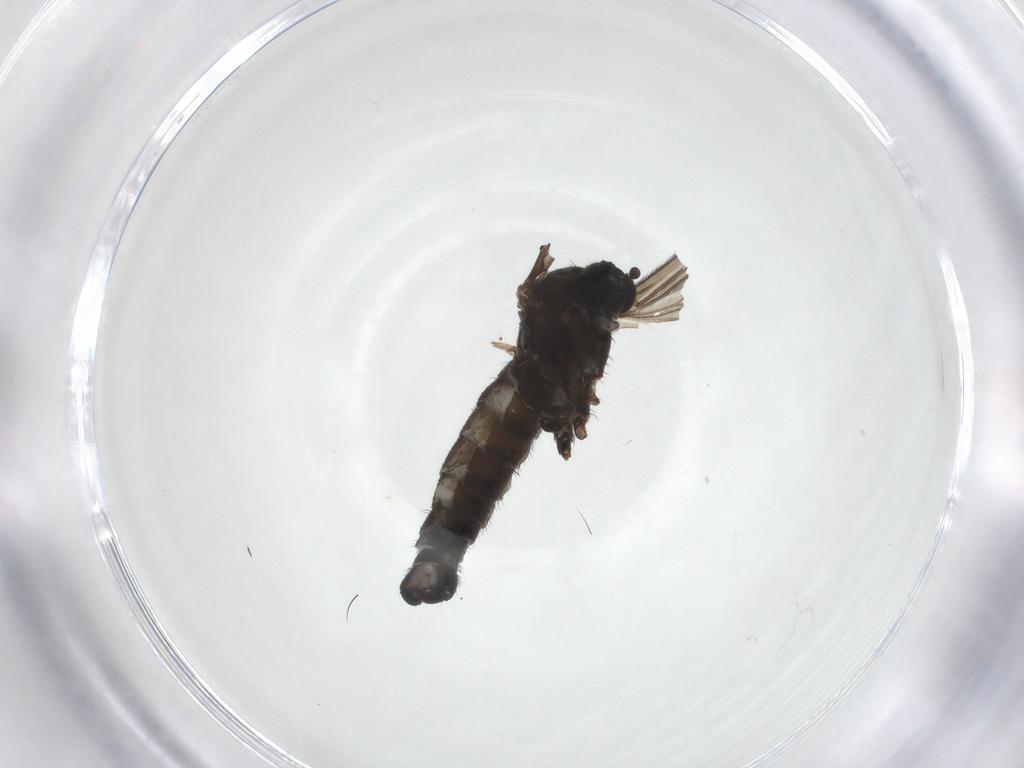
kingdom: Animalia
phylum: Arthropoda
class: Insecta
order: Diptera
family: Sciaridae
